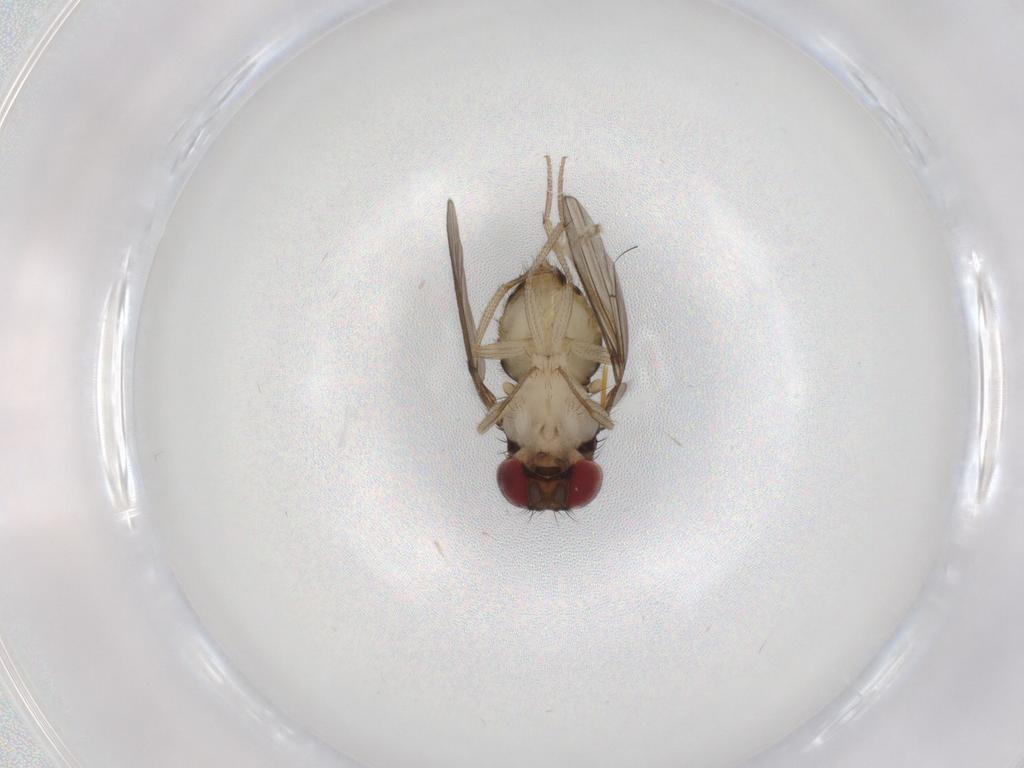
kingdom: Animalia
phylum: Arthropoda
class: Insecta
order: Diptera
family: Drosophilidae
